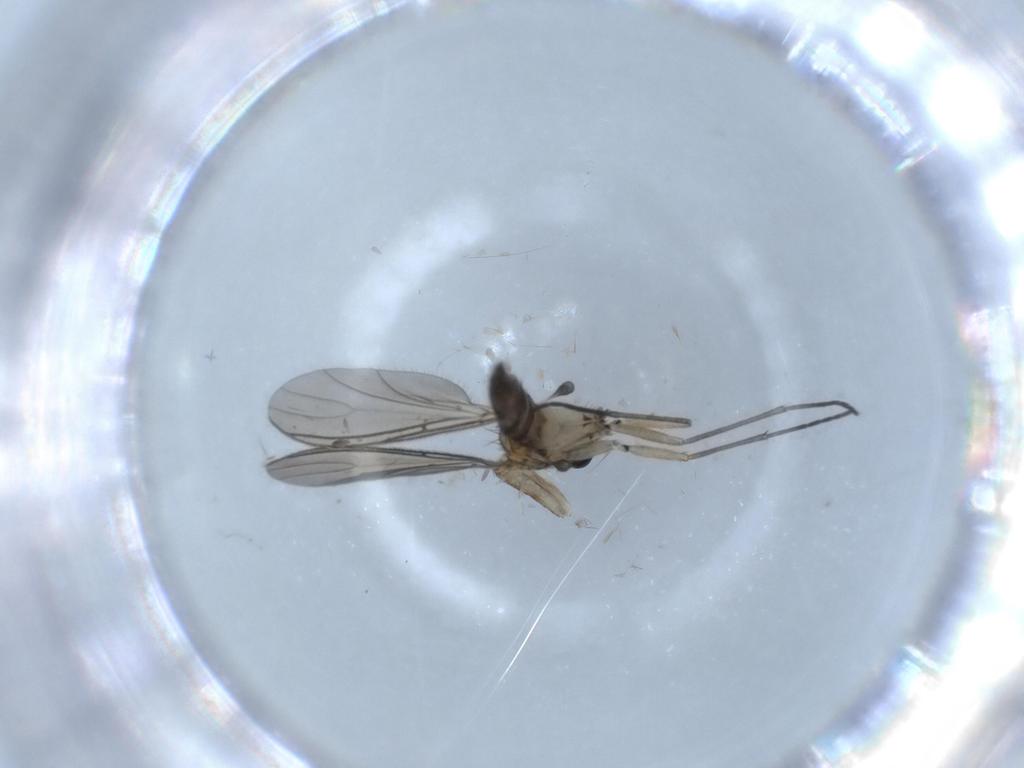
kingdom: Animalia
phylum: Arthropoda
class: Insecta
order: Diptera
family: Sciaridae
